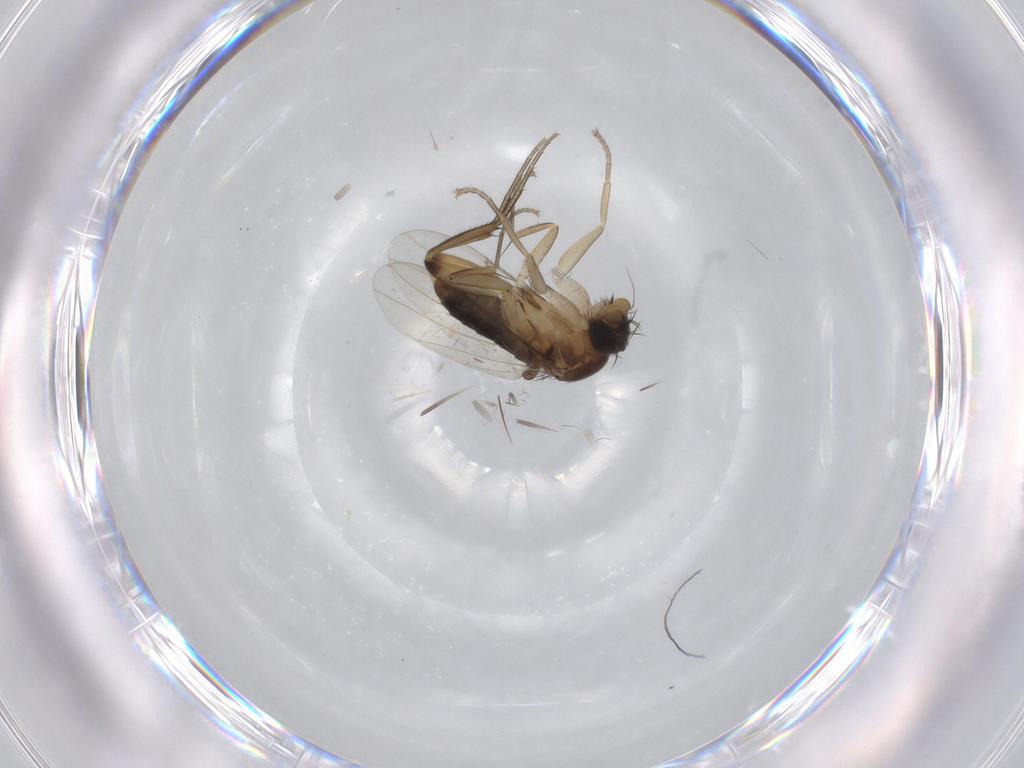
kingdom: Animalia
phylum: Arthropoda
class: Insecta
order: Diptera
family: Phoridae
